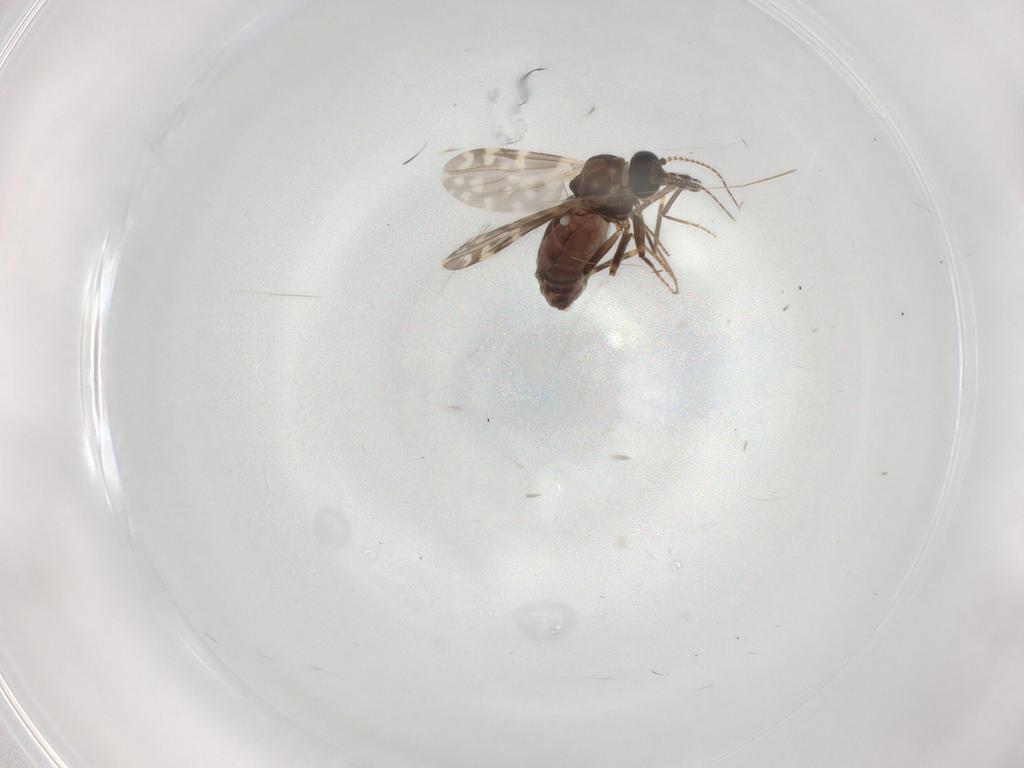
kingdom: Animalia
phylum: Arthropoda
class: Insecta
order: Diptera
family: Ceratopogonidae
